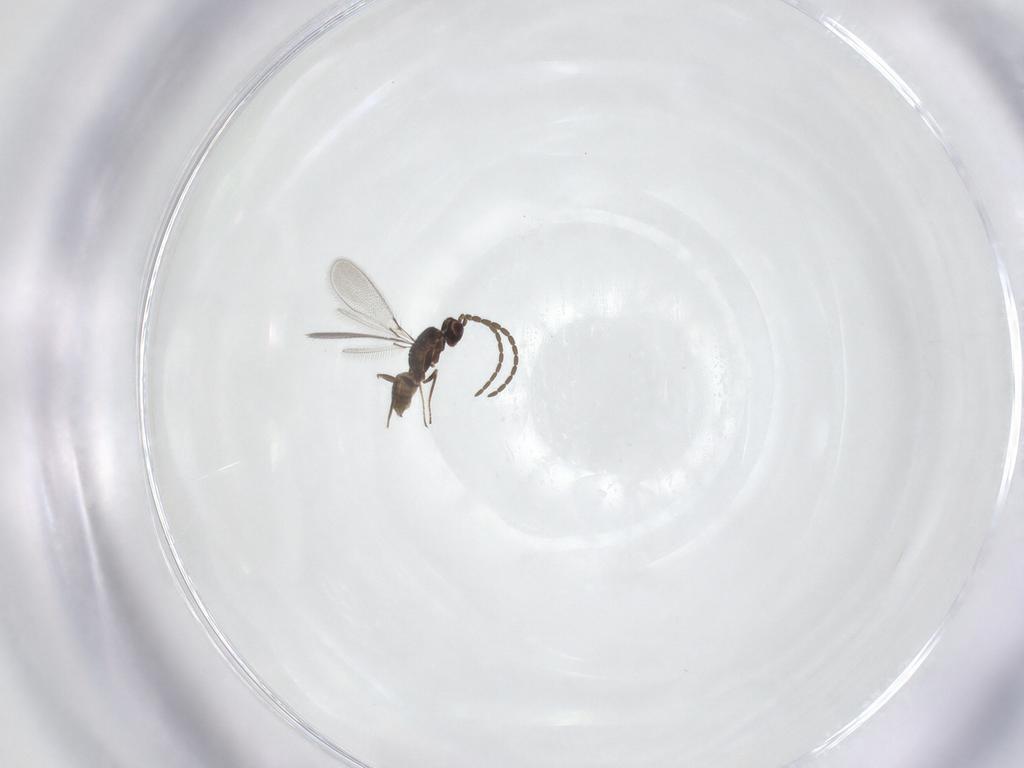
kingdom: Animalia
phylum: Arthropoda
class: Insecta
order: Hymenoptera
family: Mymaridae
